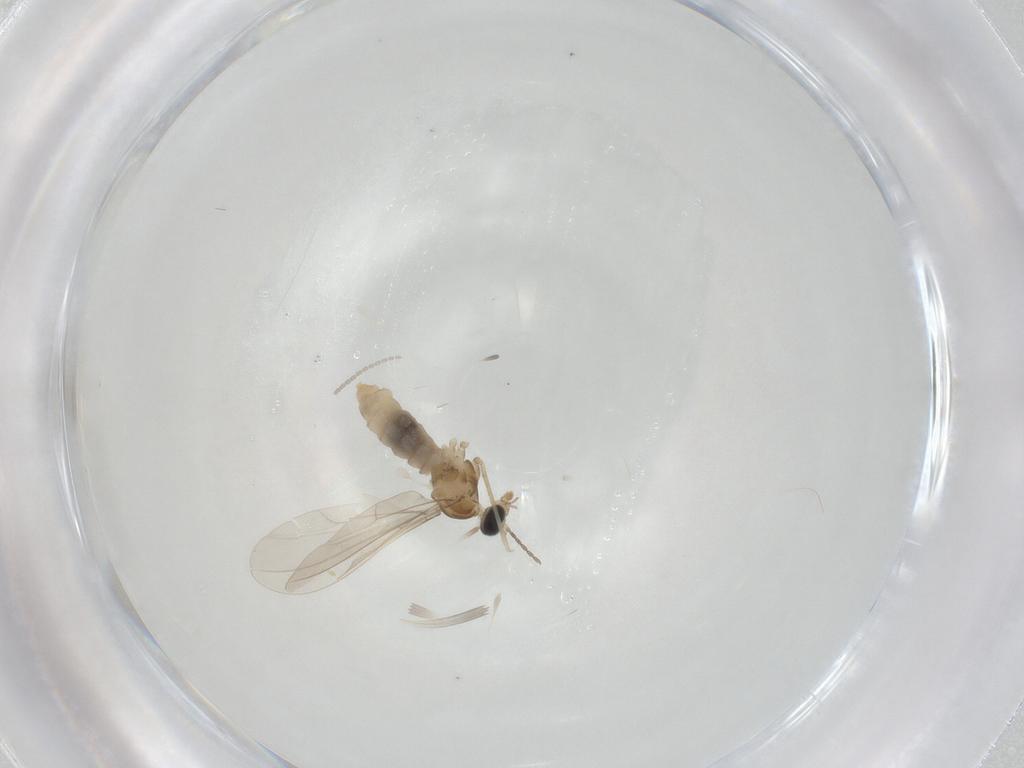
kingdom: Animalia
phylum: Arthropoda
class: Insecta
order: Diptera
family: Cecidomyiidae
